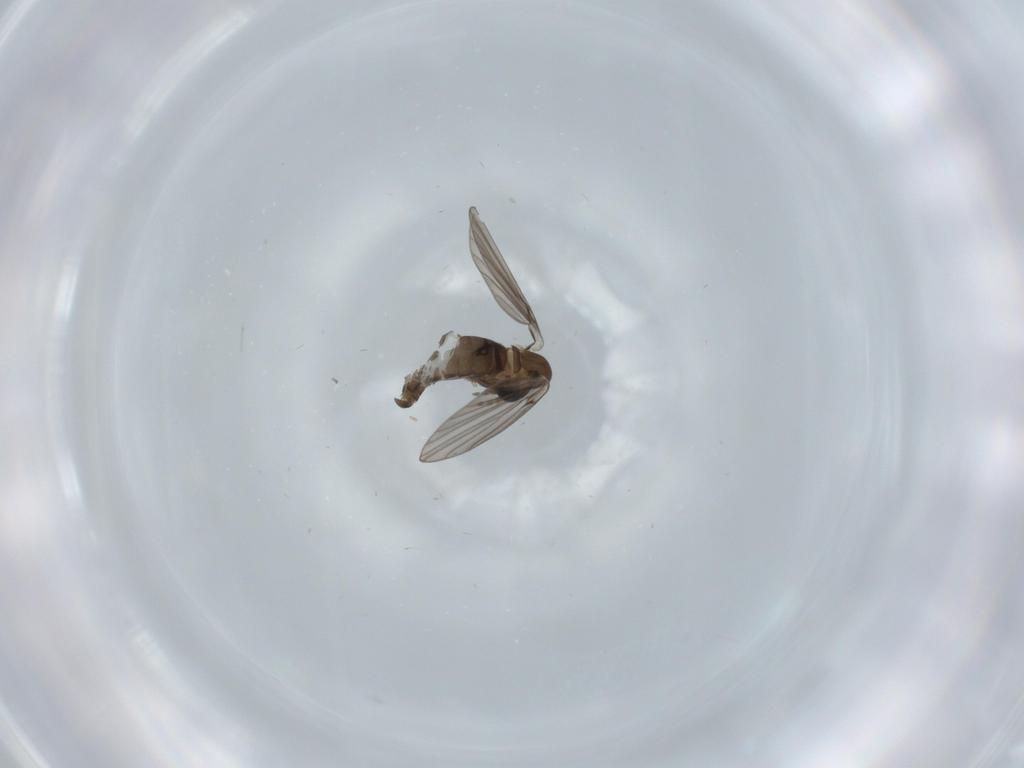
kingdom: Animalia
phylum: Arthropoda
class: Insecta
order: Diptera
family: Psychodidae
